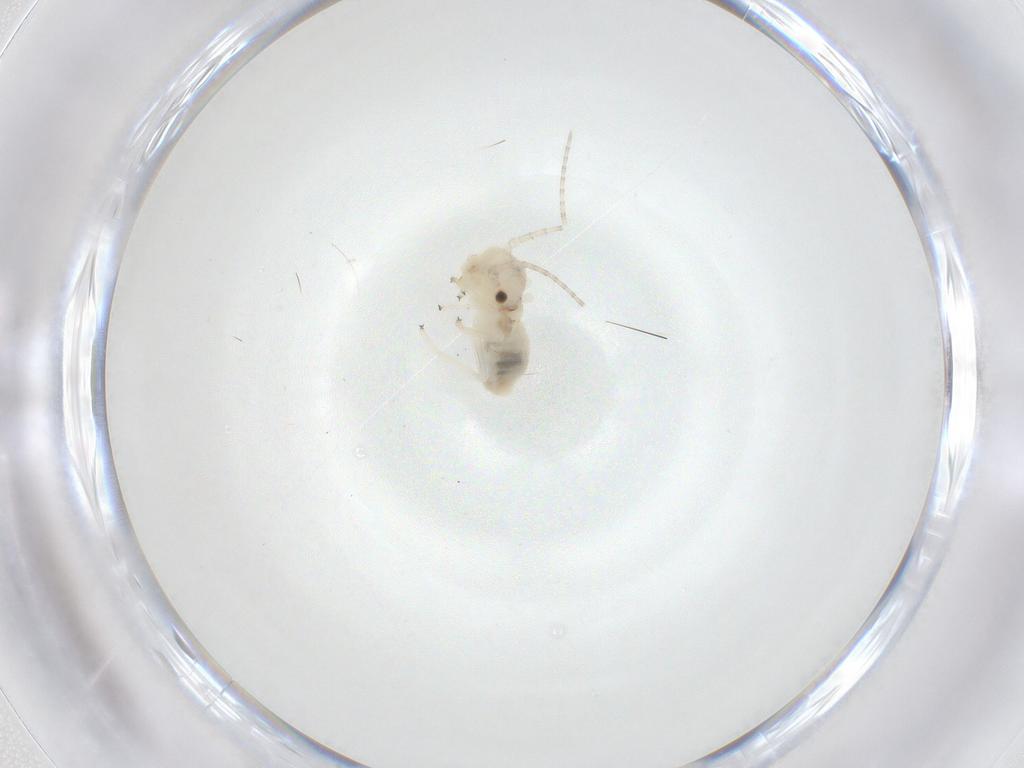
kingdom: Animalia
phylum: Arthropoda
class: Insecta
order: Psocodea
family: Amphipsocidae
